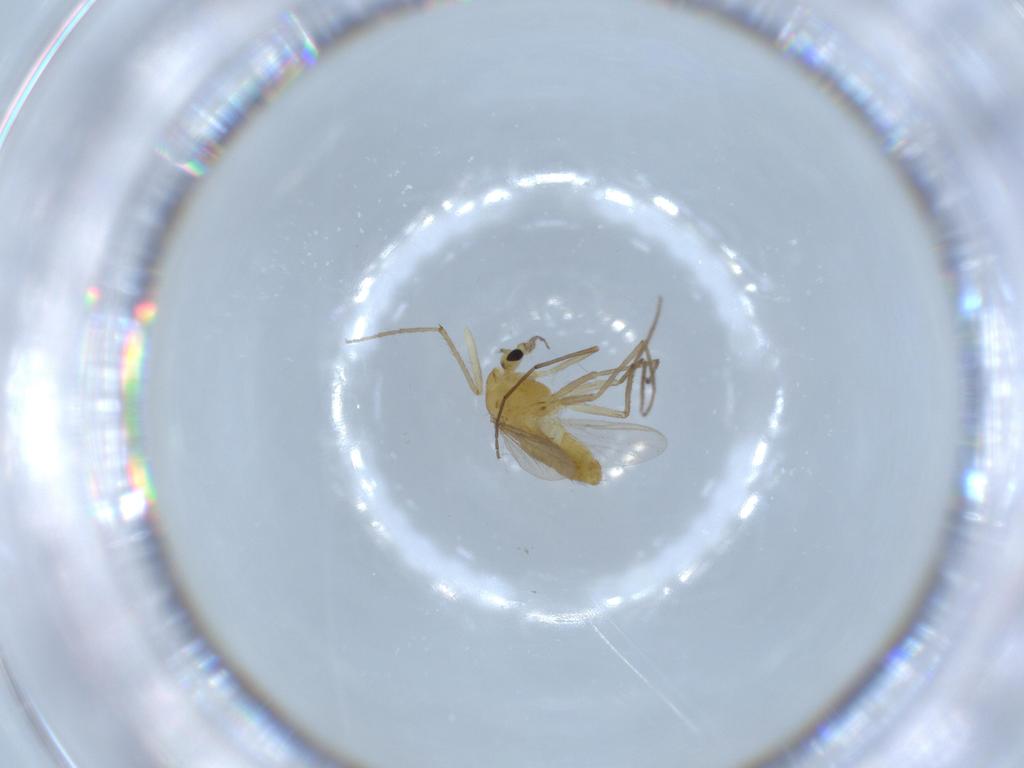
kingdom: Animalia
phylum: Arthropoda
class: Insecta
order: Diptera
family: Chironomidae
